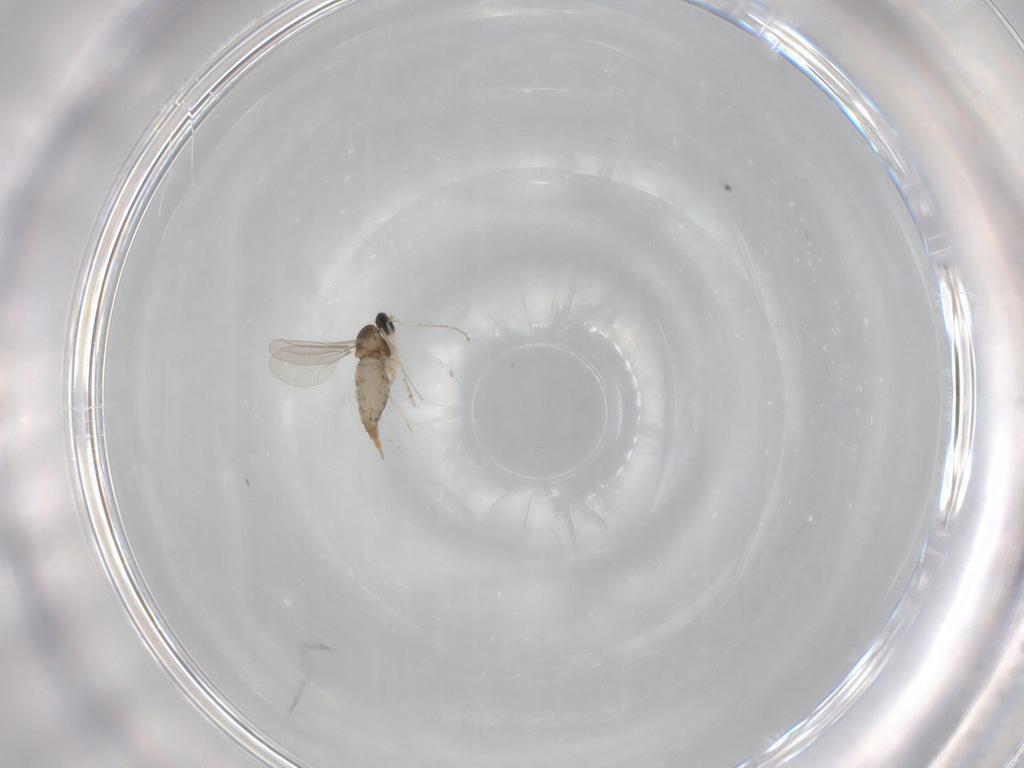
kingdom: Animalia
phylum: Arthropoda
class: Insecta
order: Diptera
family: Cecidomyiidae
